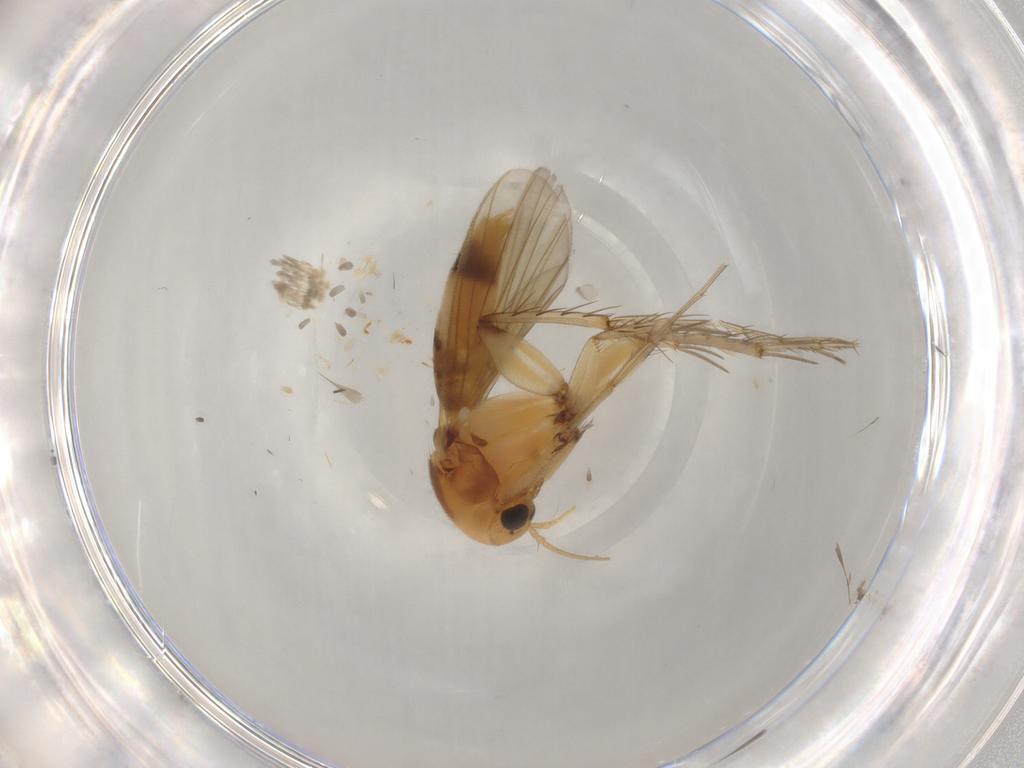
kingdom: Animalia
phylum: Arthropoda
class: Insecta
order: Diptera
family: Mycetophilidae
